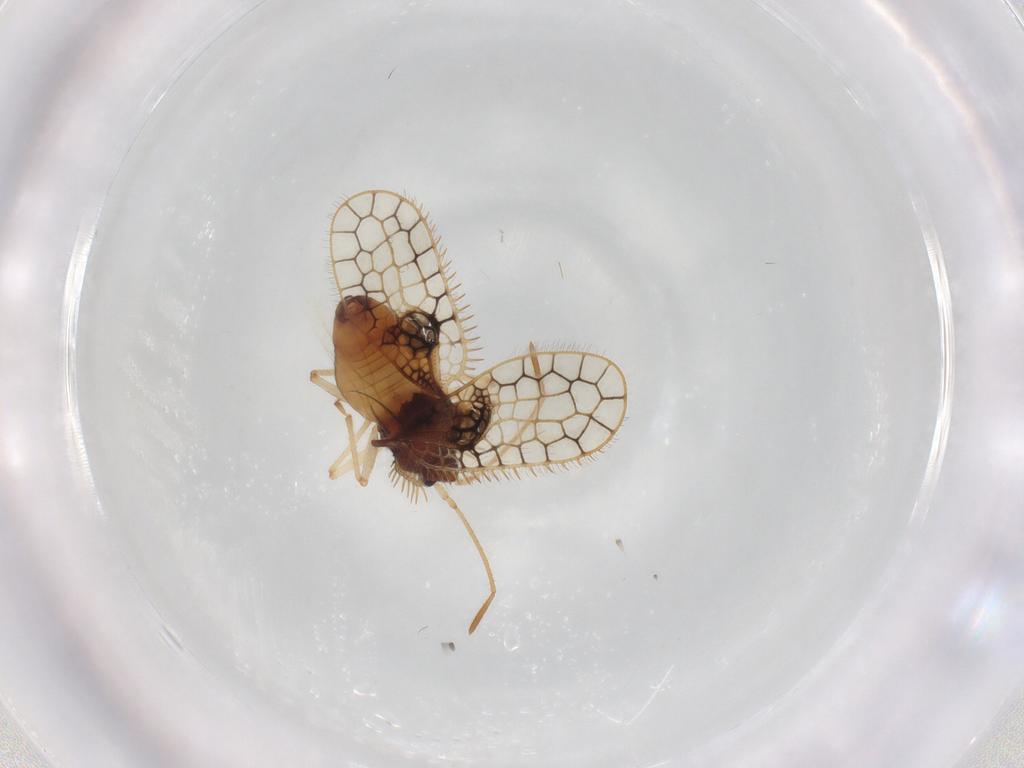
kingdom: Animalia
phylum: Arthropoda
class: Insecta
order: Hemiptera
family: Tingidae
